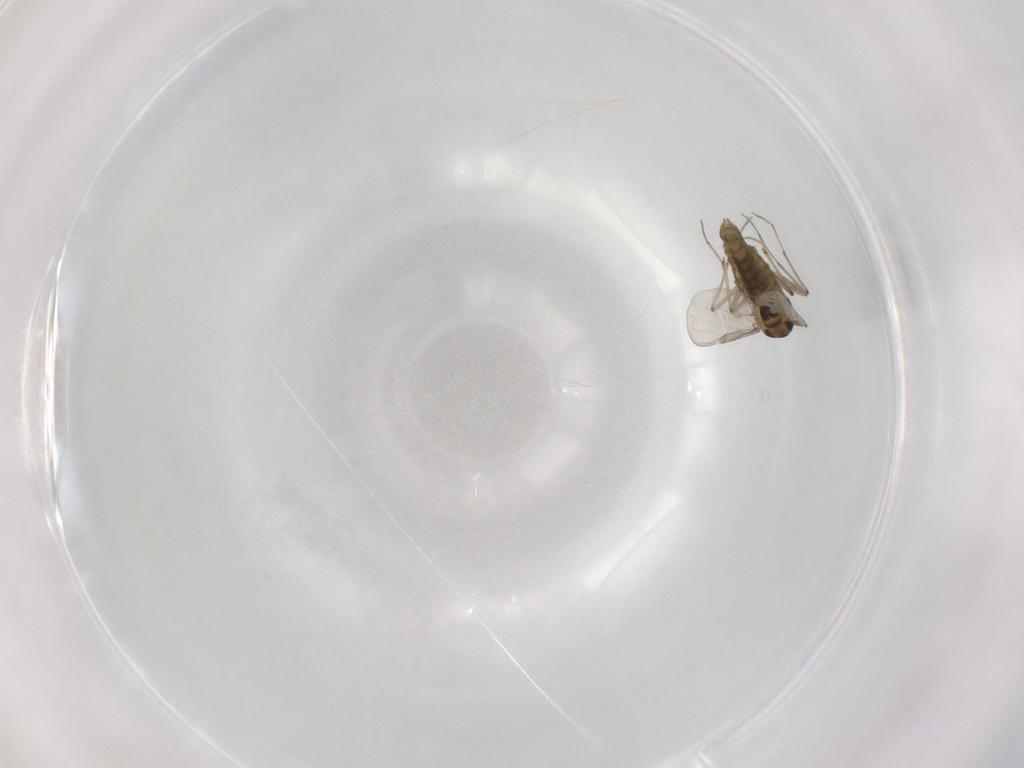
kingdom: Animalia
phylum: Arthropoda
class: Insecta
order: Diptera
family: Chironomidae
